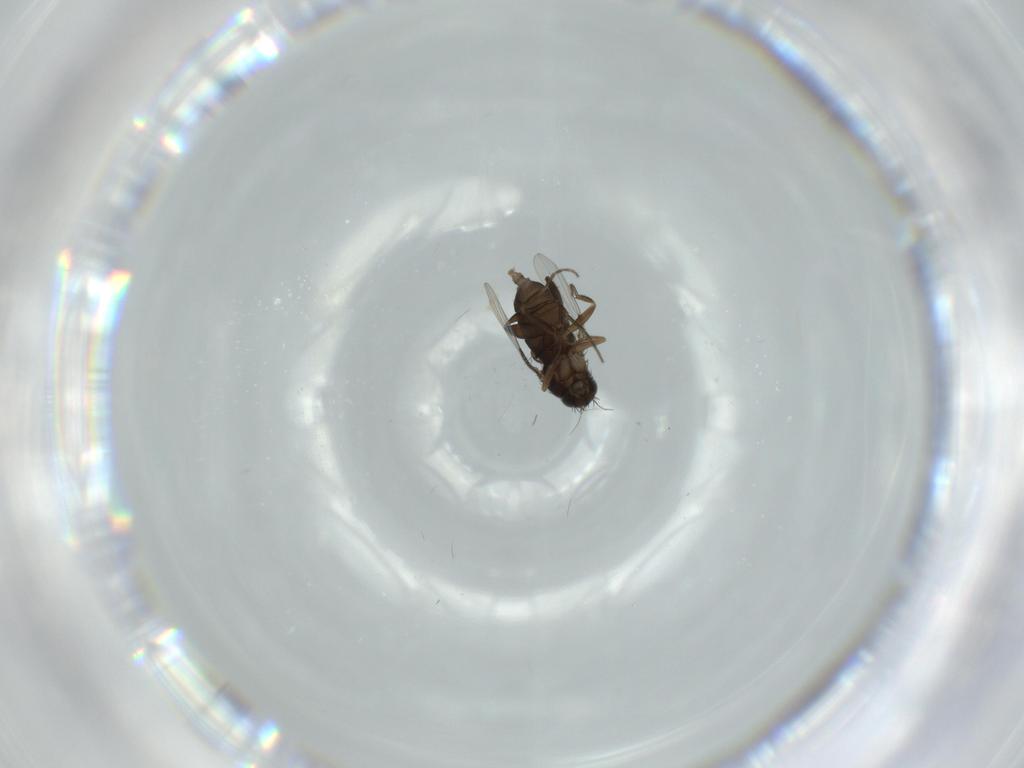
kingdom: Animalia
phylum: Arthropoda
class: Insecta
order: Diptera
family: Phoridae
